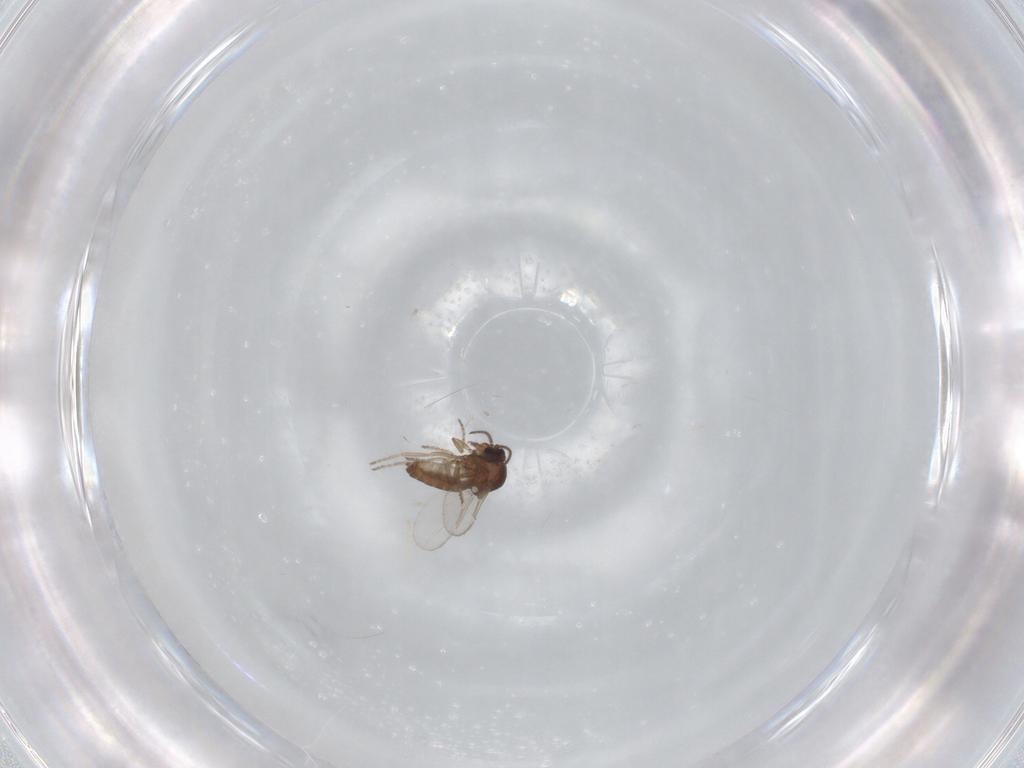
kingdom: Animalia
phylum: Arthropoda
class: Insecta
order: Diptera
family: Ceratopogonidae
